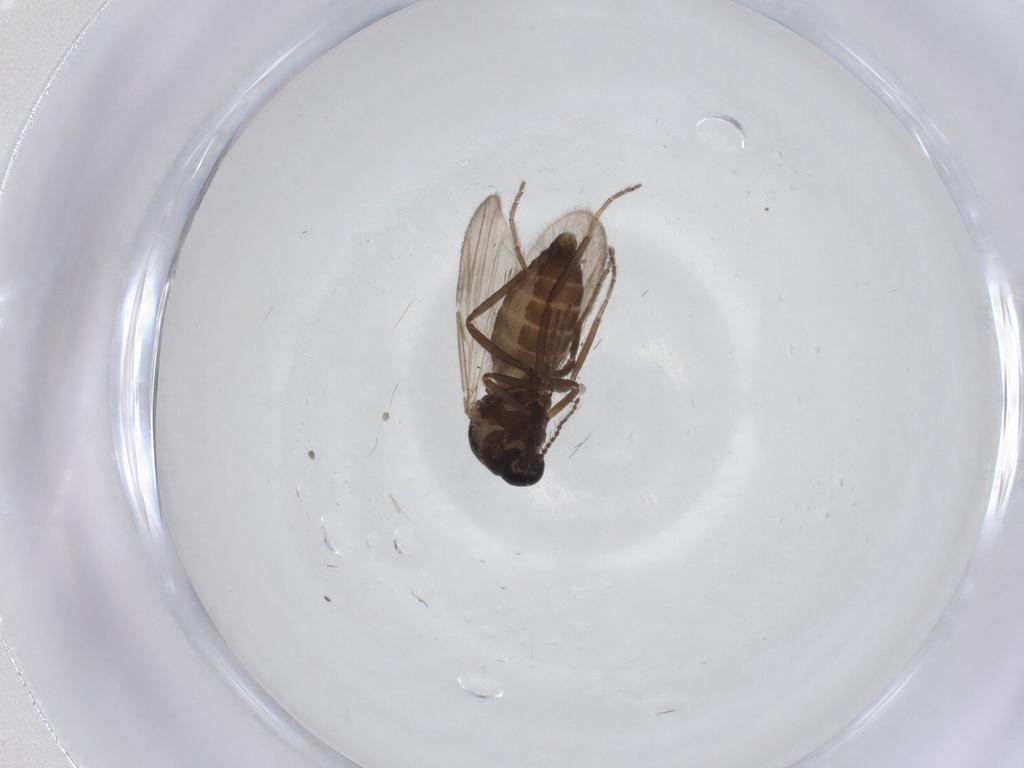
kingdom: Animalia
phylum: Arthropoda
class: Insecta
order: Diptera
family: Ceratopogonidae
